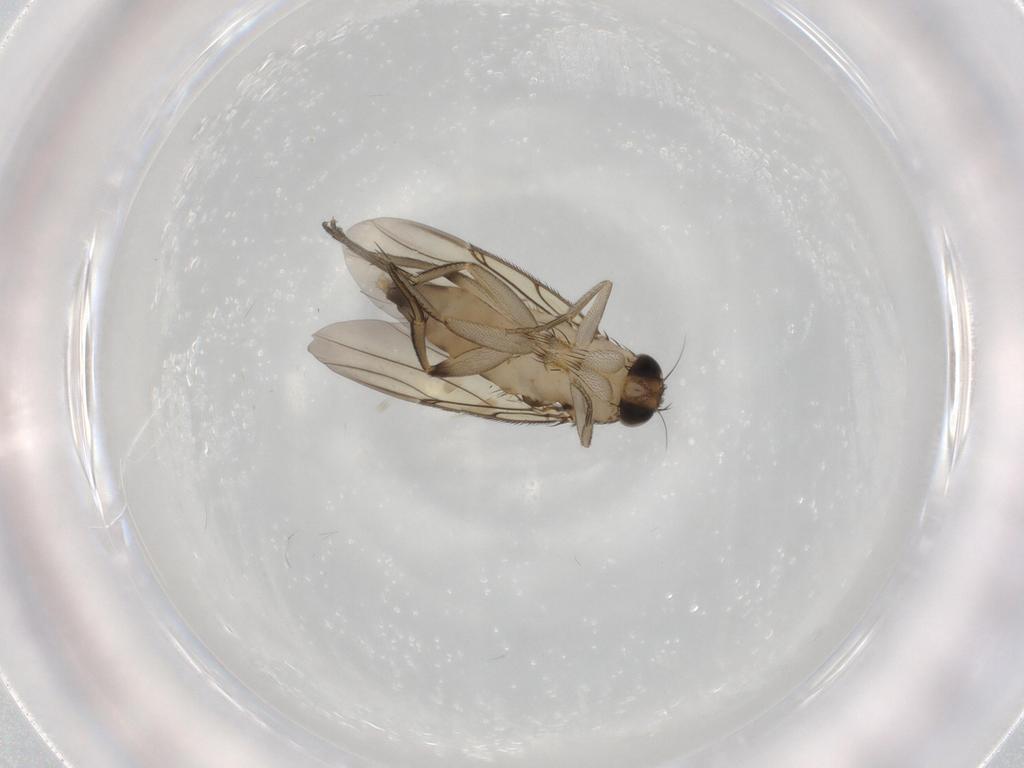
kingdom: Animalia
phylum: Arthropoda
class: Insecta
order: Diptera
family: Phoridae
